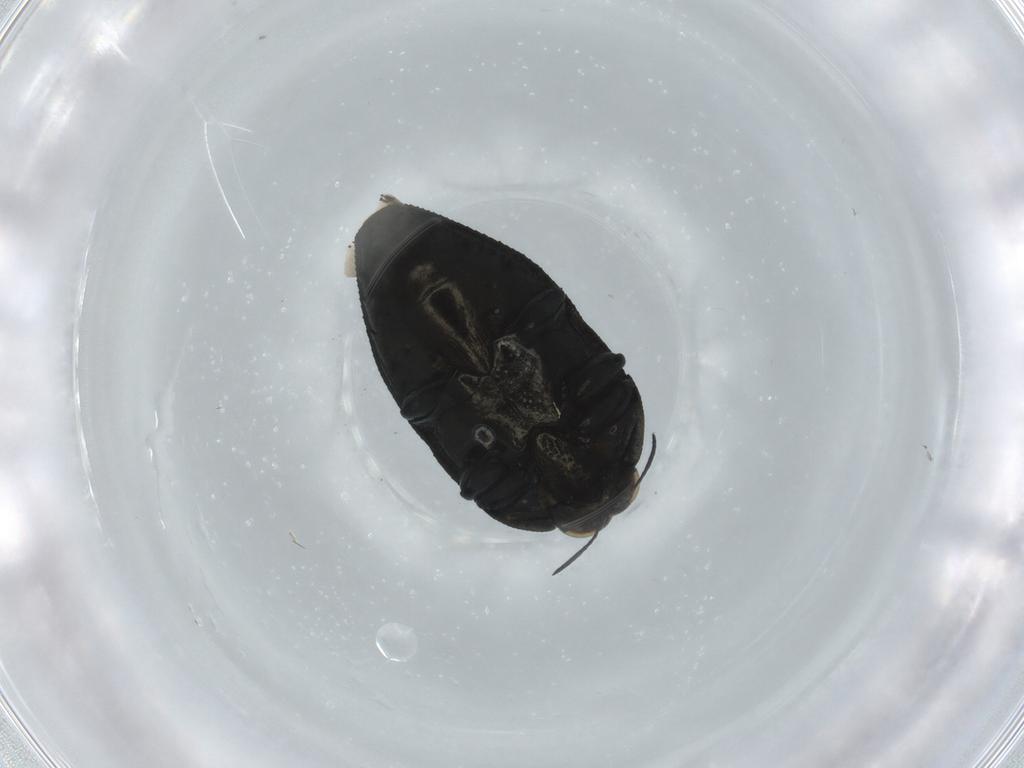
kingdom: Animalia
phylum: Arthropoda
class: Insecta
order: Coleoptera
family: Buprestidae
